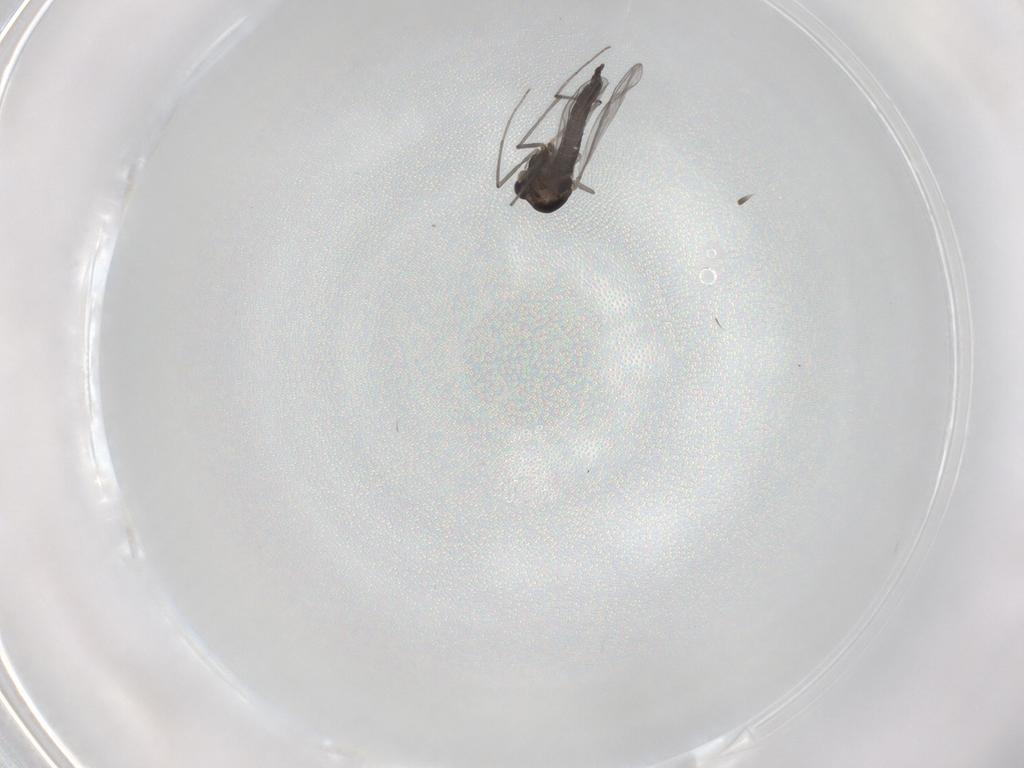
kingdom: Animalia
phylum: Arthropoda
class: Insecta
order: Diptera
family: Chironomidae
